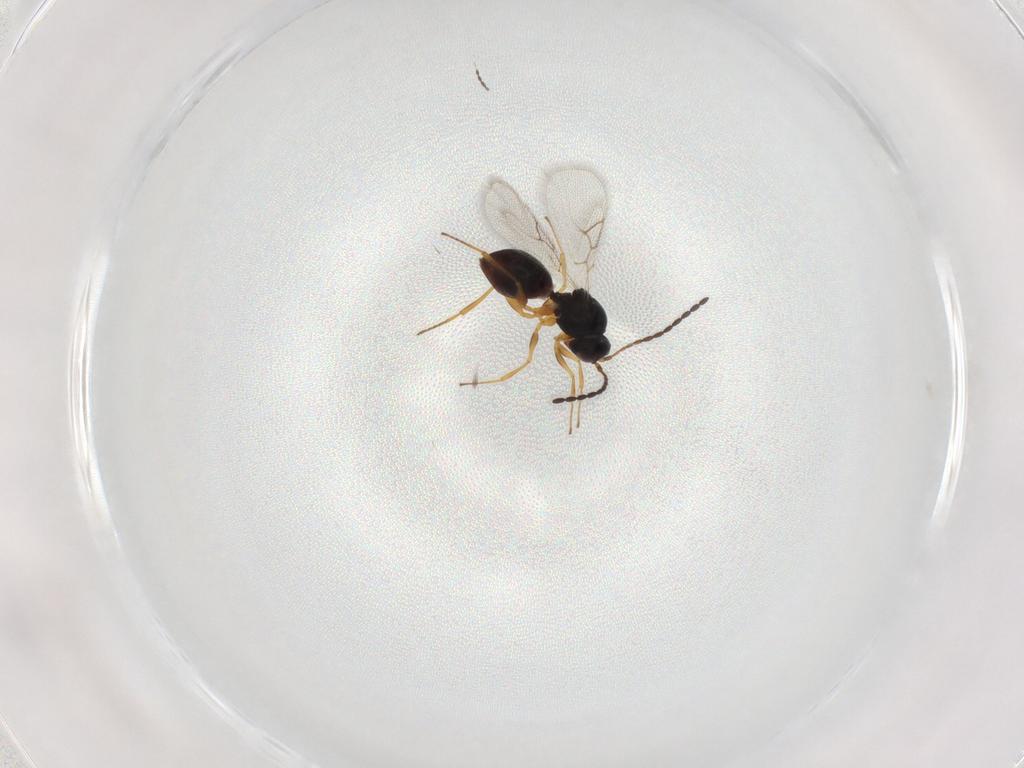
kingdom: Animalia
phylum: Arthropoda
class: Insecta
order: Hymenoptera
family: Figitidae
